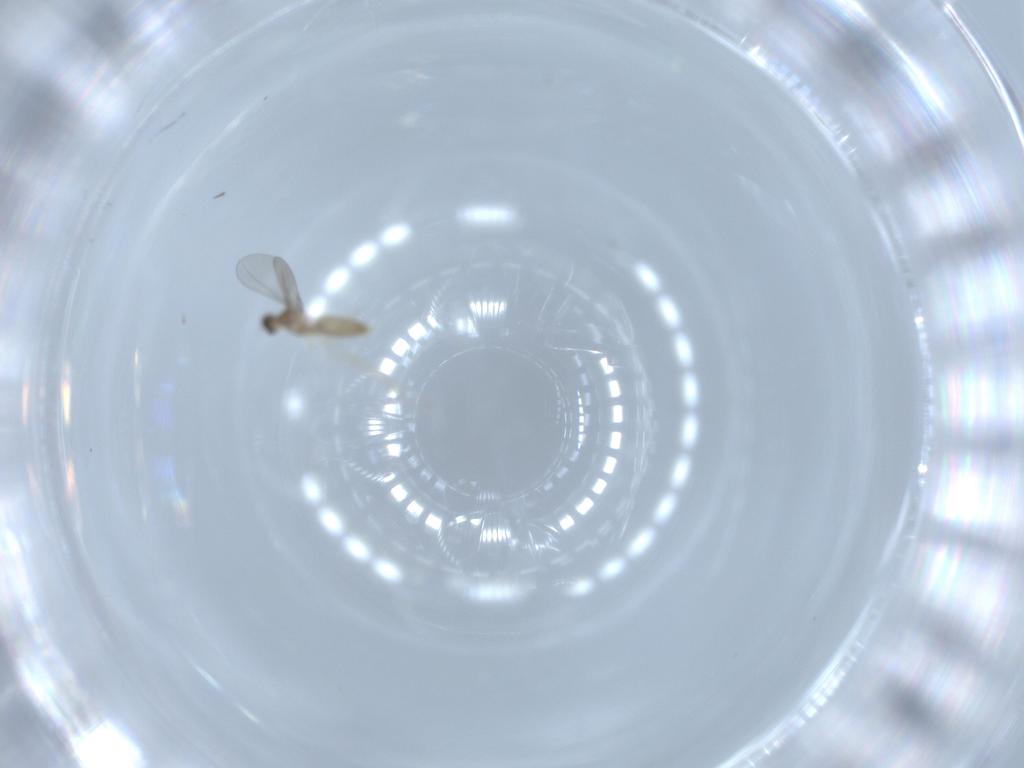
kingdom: Animalia
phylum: Arthropoda
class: Insecta
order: Diptera
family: Cecidomyiidae
